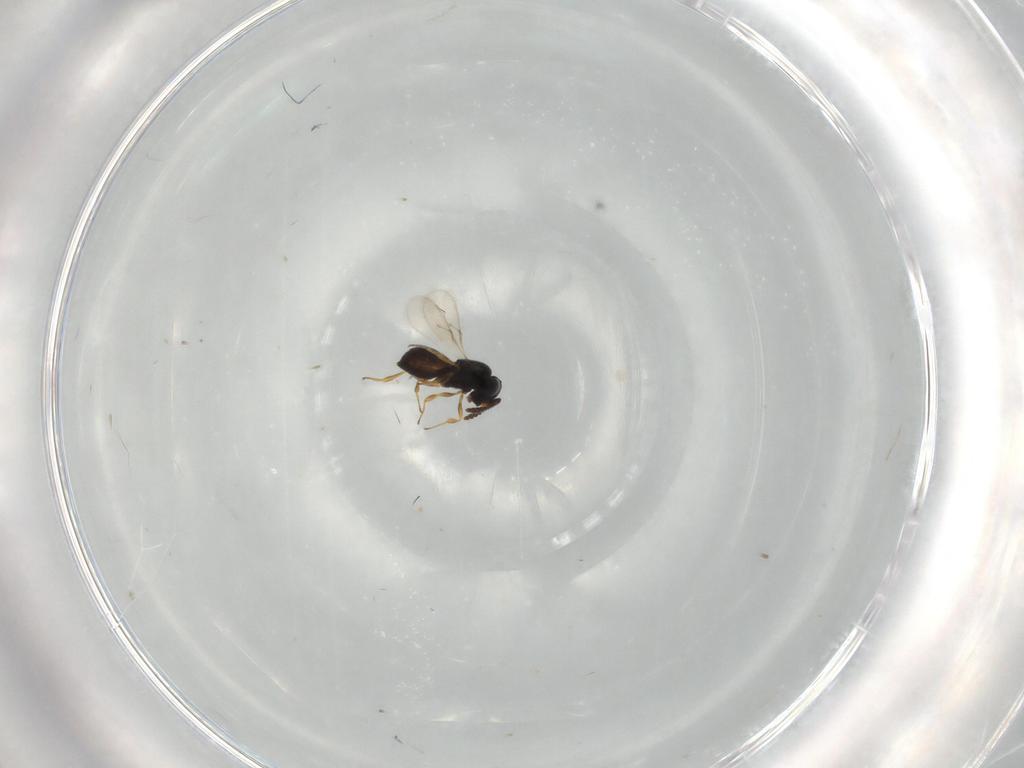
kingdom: Animalia
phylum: Arthropoda
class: Insecta
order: Hymenoptera
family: Scelionidae
